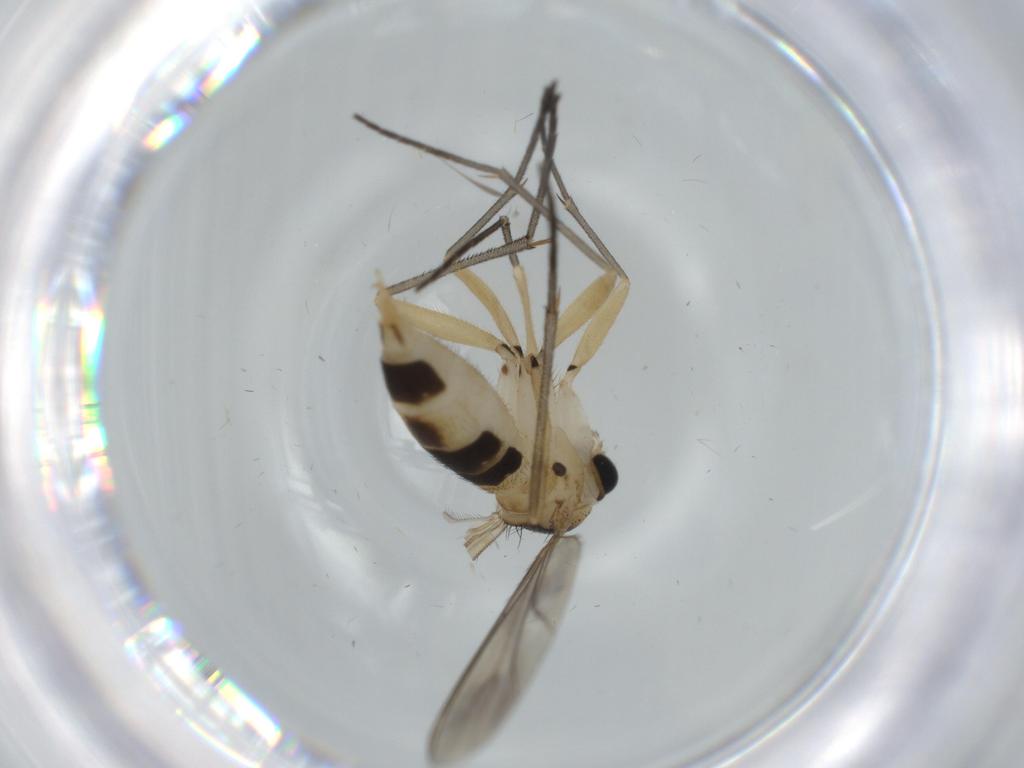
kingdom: Animalia
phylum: Arthropoda
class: Insecta
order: Diptera
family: Sciaridae
